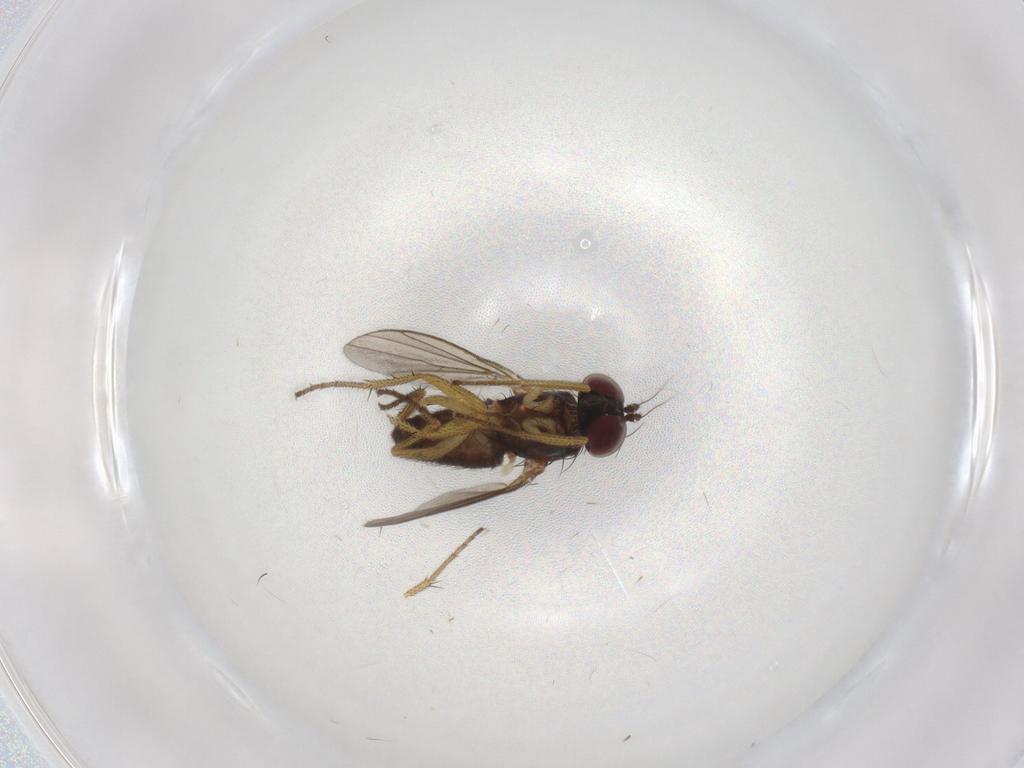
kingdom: Animalia
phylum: Arthropoda
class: Insecta
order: Diptera
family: Dolichopodidae
